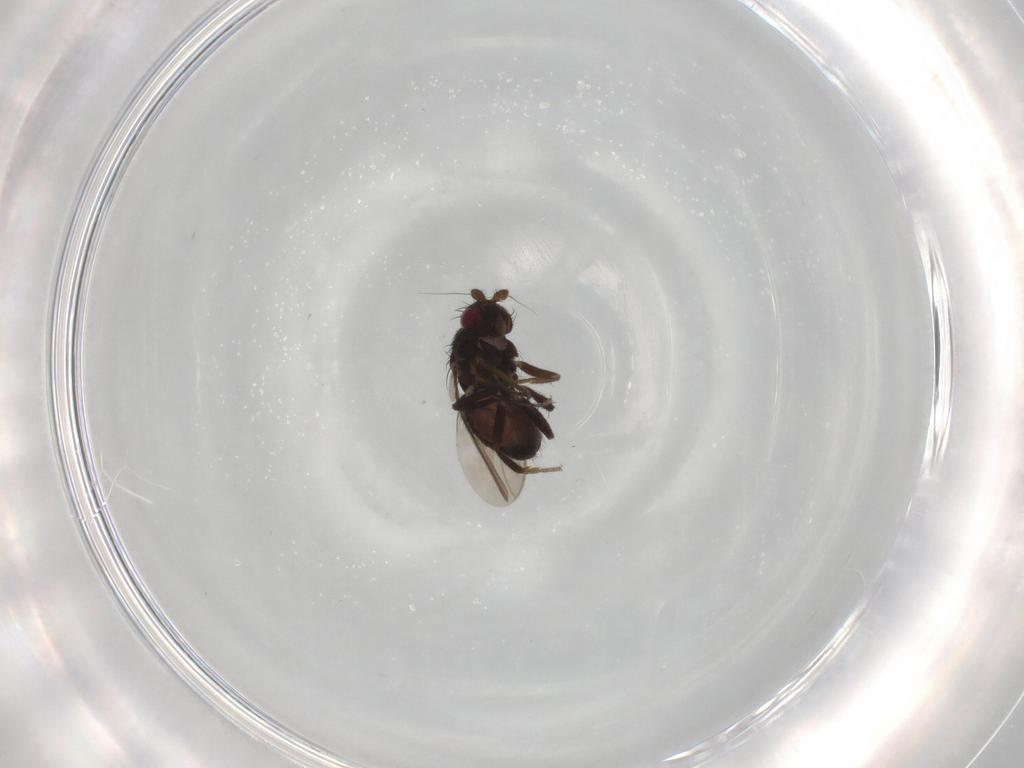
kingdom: Animalia
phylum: Arthropoda
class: Insecta
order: Diptera
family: Sphaeroceridae
